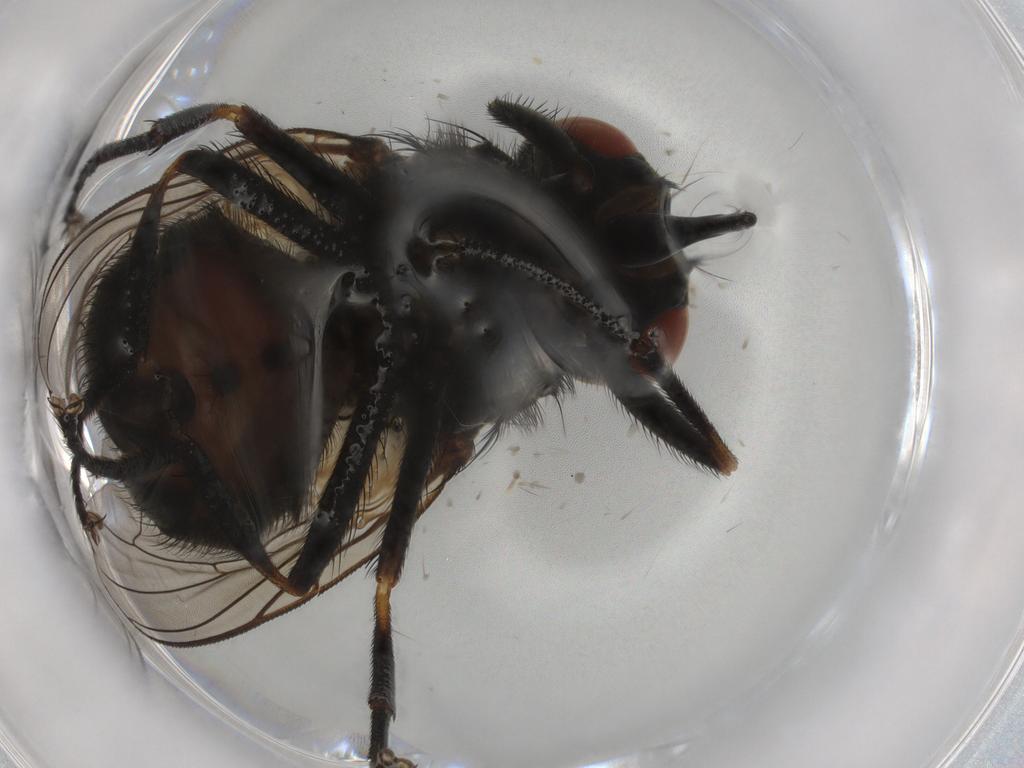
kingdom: Animalia
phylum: Arthropoda
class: Insecta
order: Diptera
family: Muscidae
